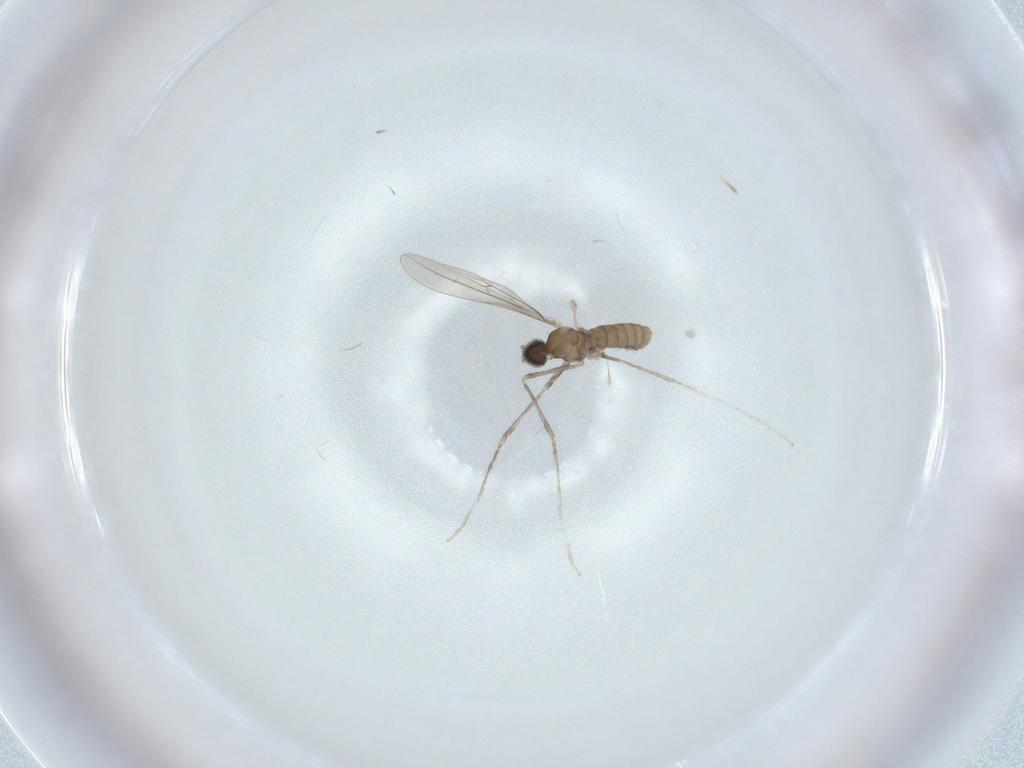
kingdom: Animalia
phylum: Arthropoda
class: Insecta
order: Diptera
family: Cecidomyiidae
